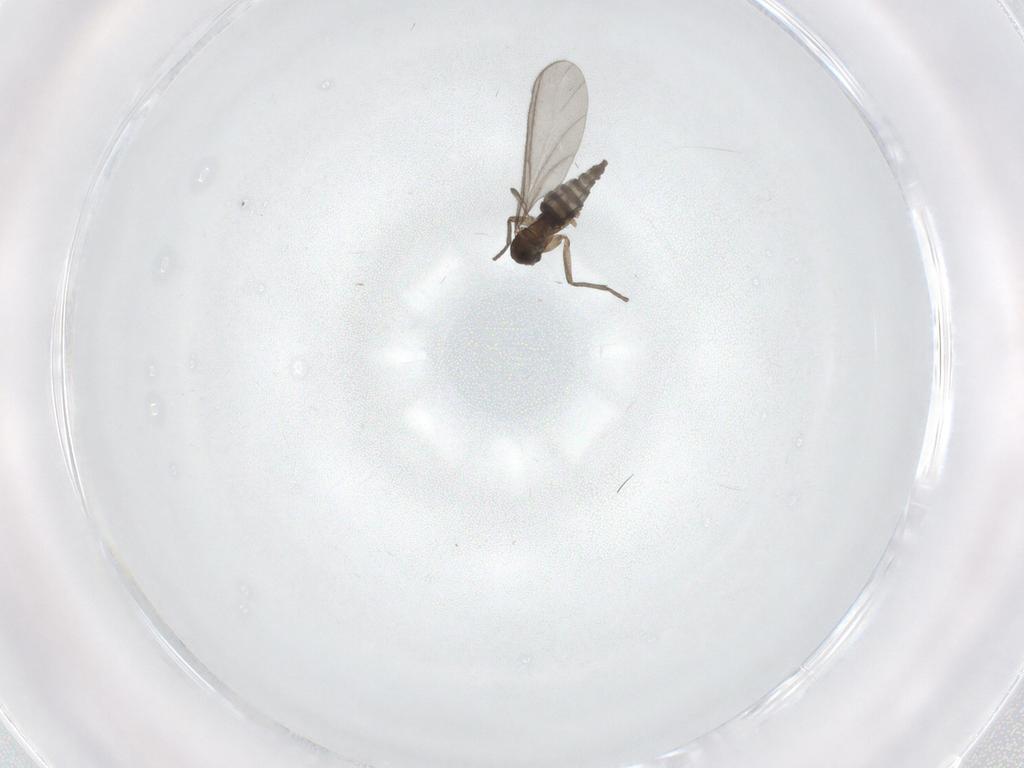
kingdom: Animalia
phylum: Arthropoda
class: Insecta
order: Diptera
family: Sciaridae
